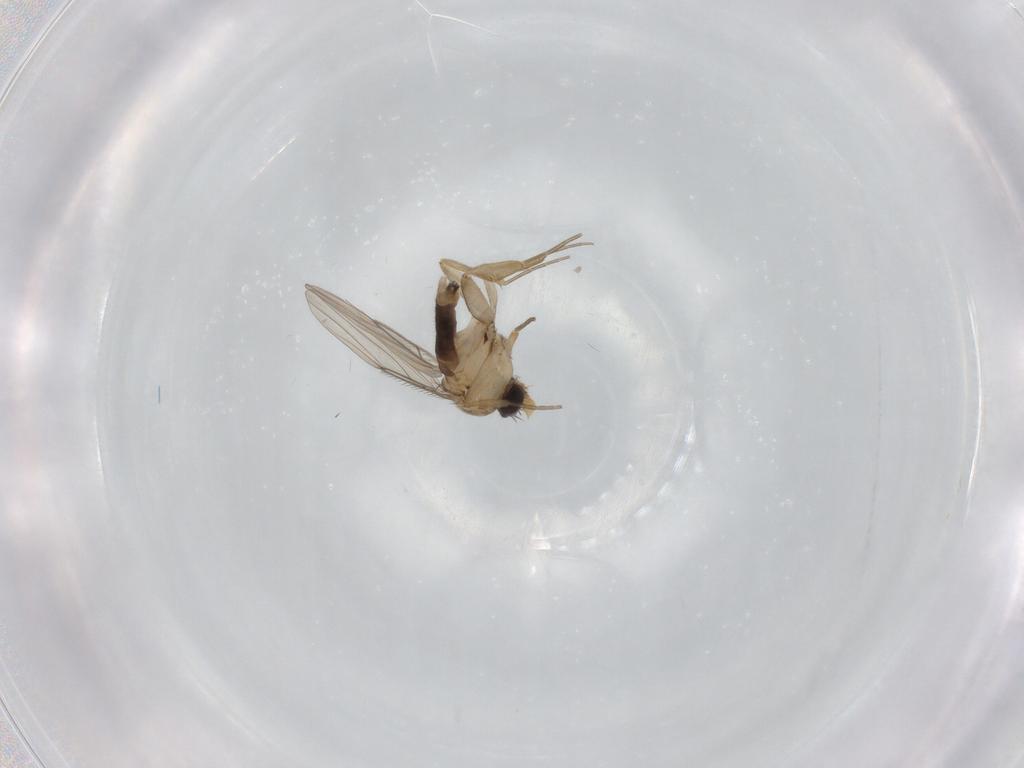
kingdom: Animalia
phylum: Arthropoda
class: Insecta
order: Diptera
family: Phoridae
